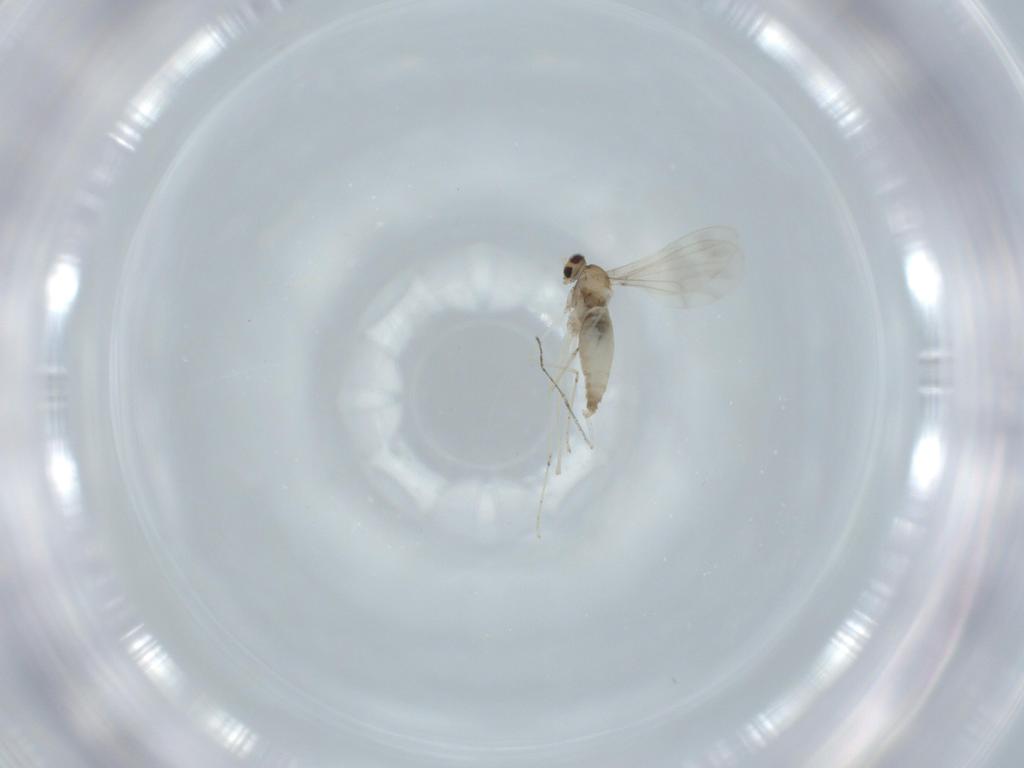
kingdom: Animalia
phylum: Arthropoda
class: Insecta
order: Diptera
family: Cecidomyiidae
